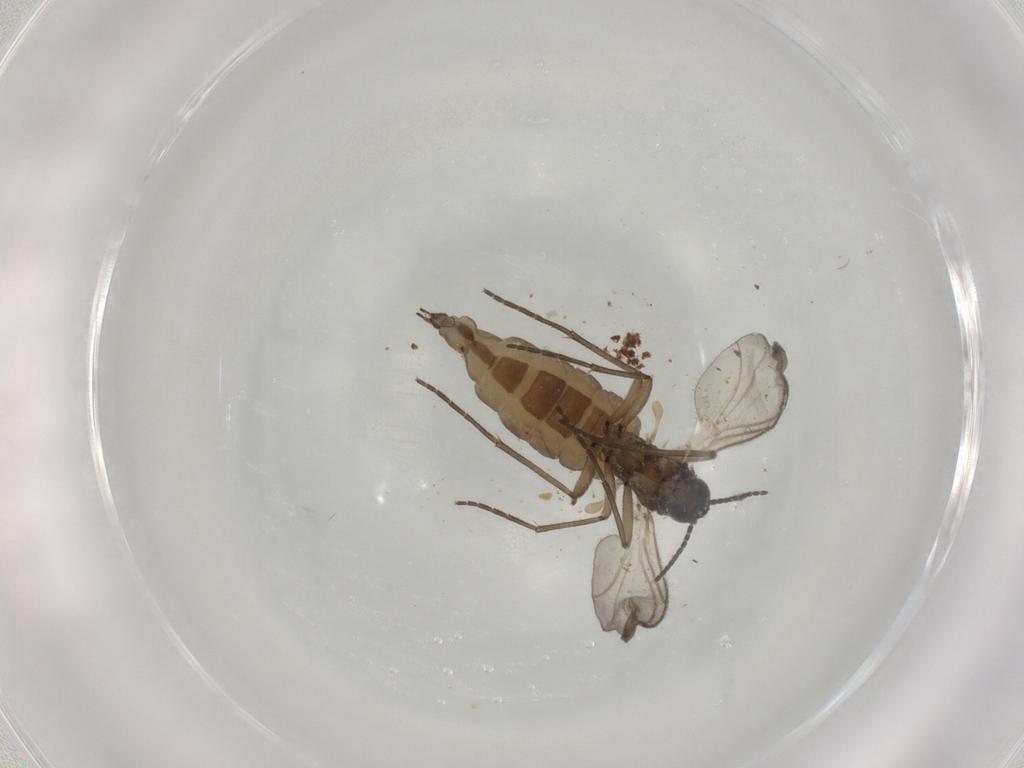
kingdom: Animalia
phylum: Arthropoda
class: Insecta
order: Diptera
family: Sciaridae
